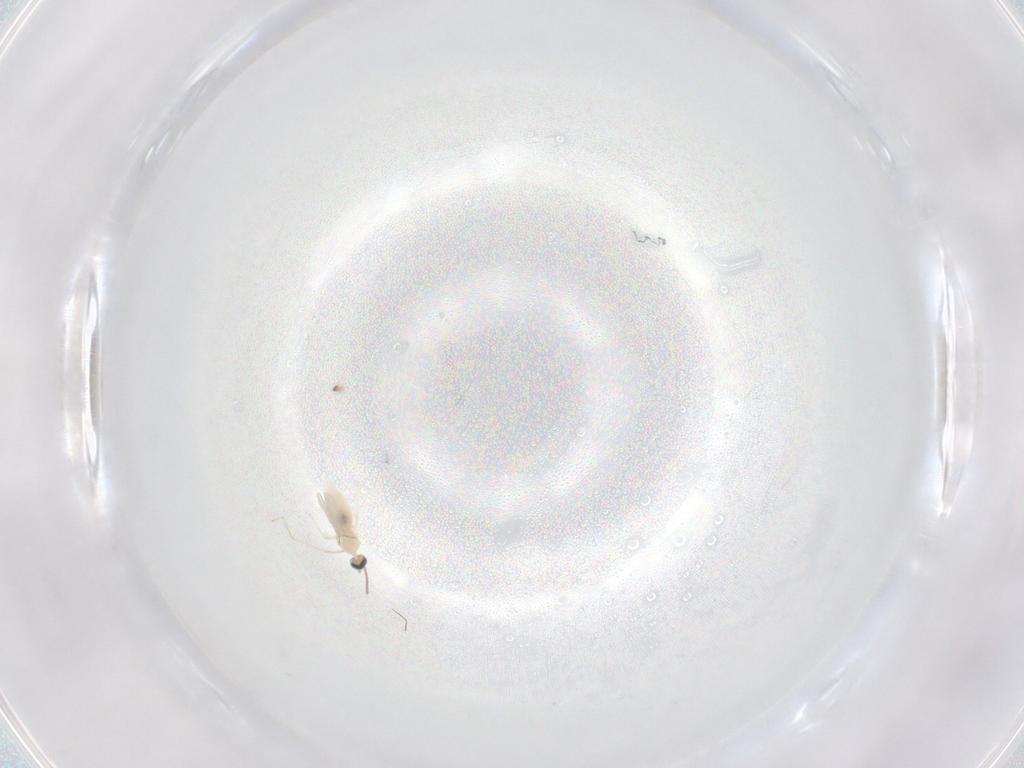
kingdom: Animalia
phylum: Arthropoda
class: Insecta
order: Diptera
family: Cecidomyiidae
